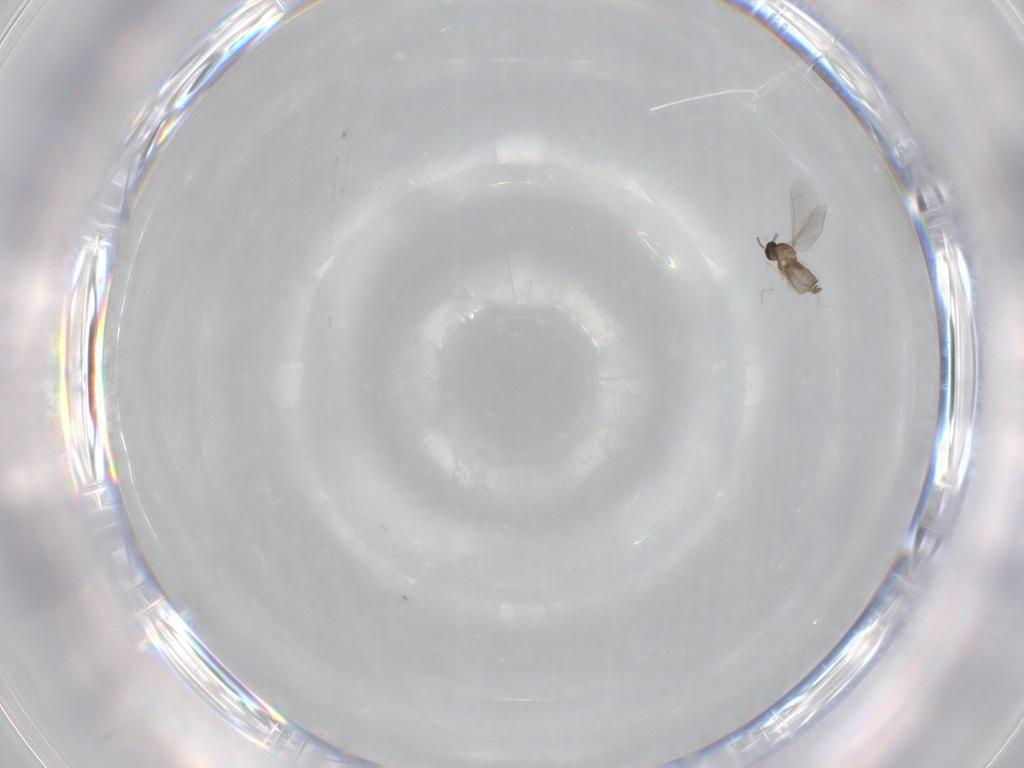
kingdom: Animalia
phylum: Arthropoda
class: Insecta
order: Diptera
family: Cecidomyiidae
